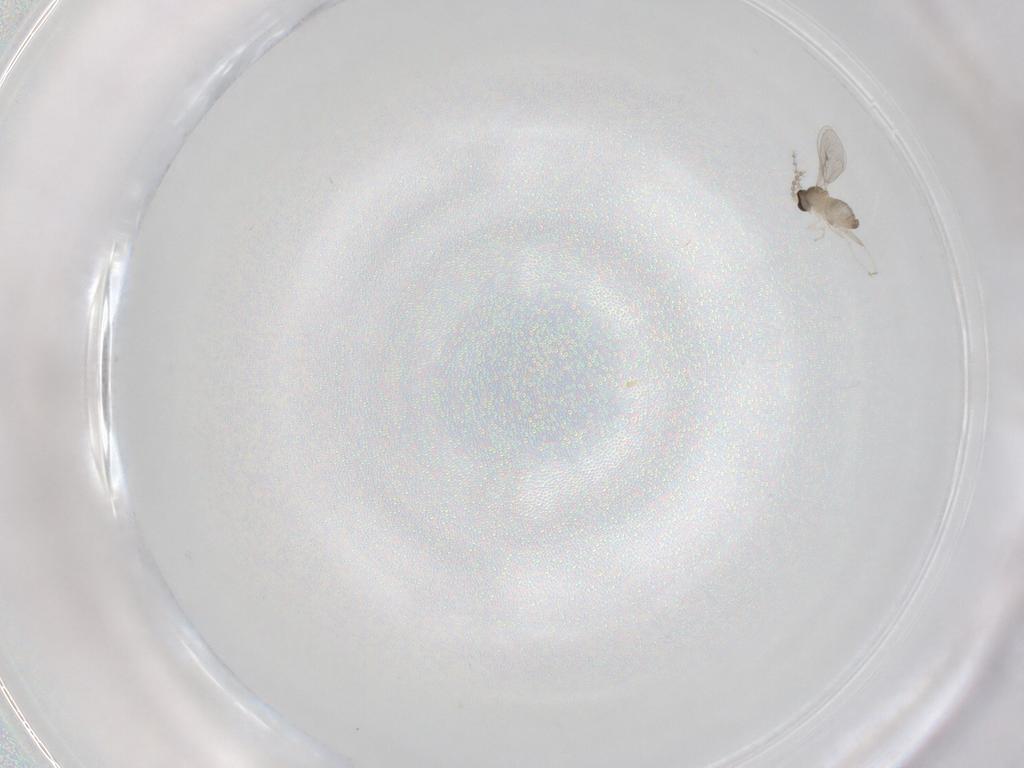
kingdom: Animalia
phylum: Arthropoda
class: Insecta
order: Diptera
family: Cecidomyiidae
